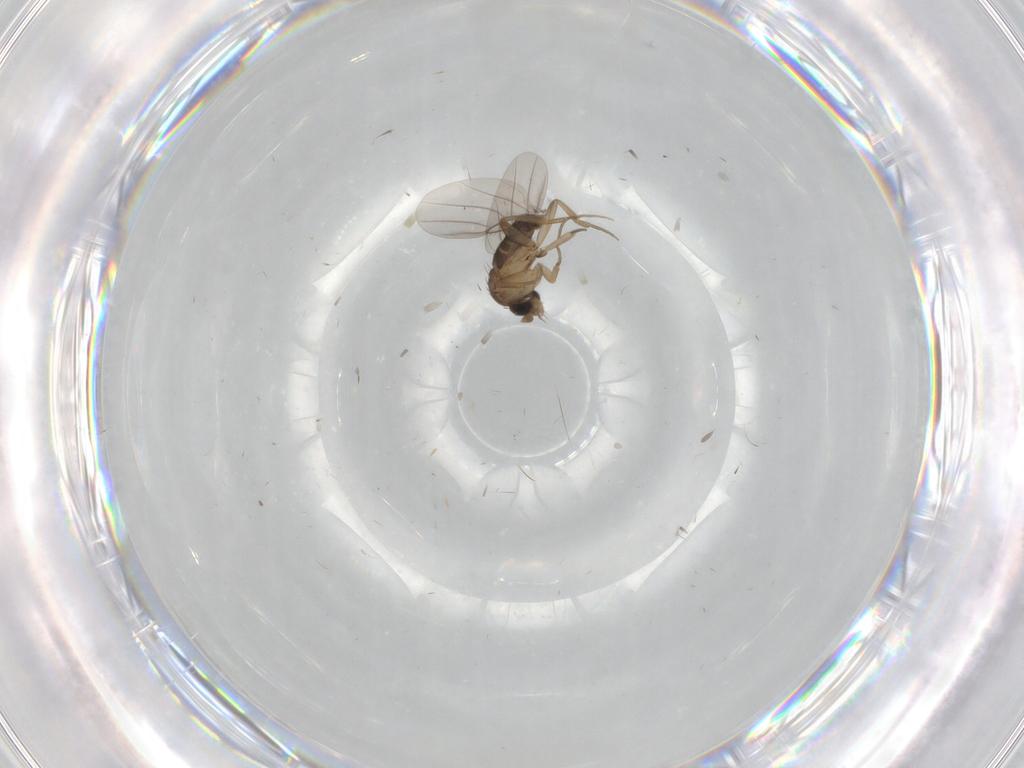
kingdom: Animalia
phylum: Arthropoda
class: Insecta
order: Diptera
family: Phoridae
